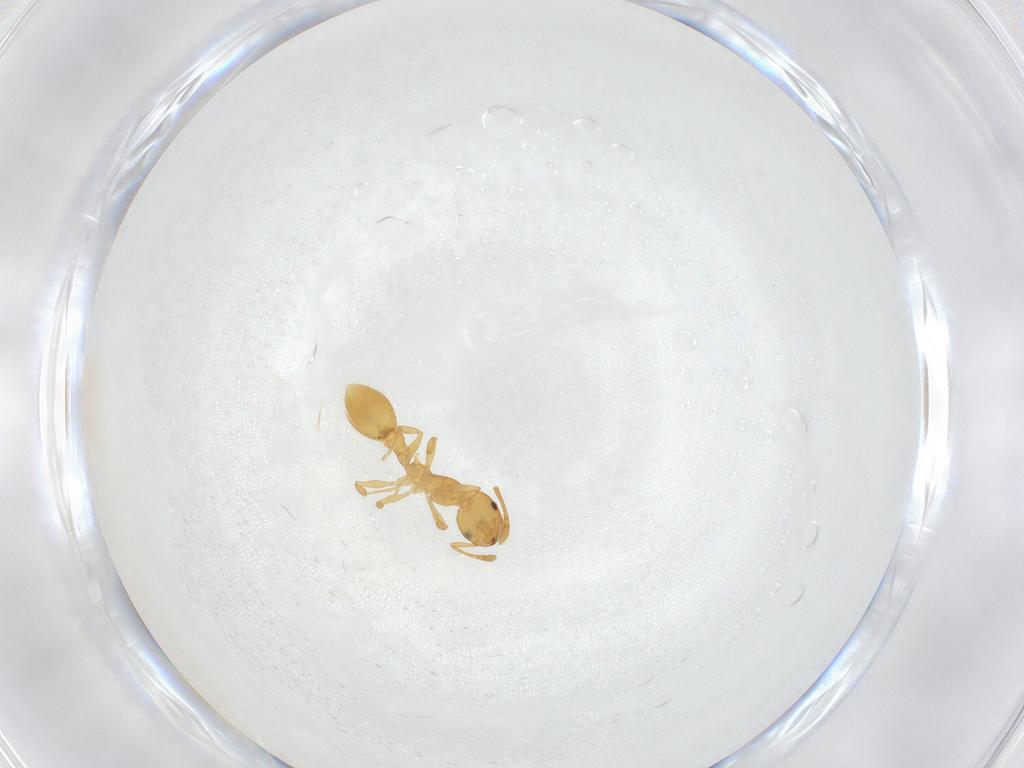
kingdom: Animalia
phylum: Arthropoda
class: Insecta
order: Hymenoptera
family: Formicidae
